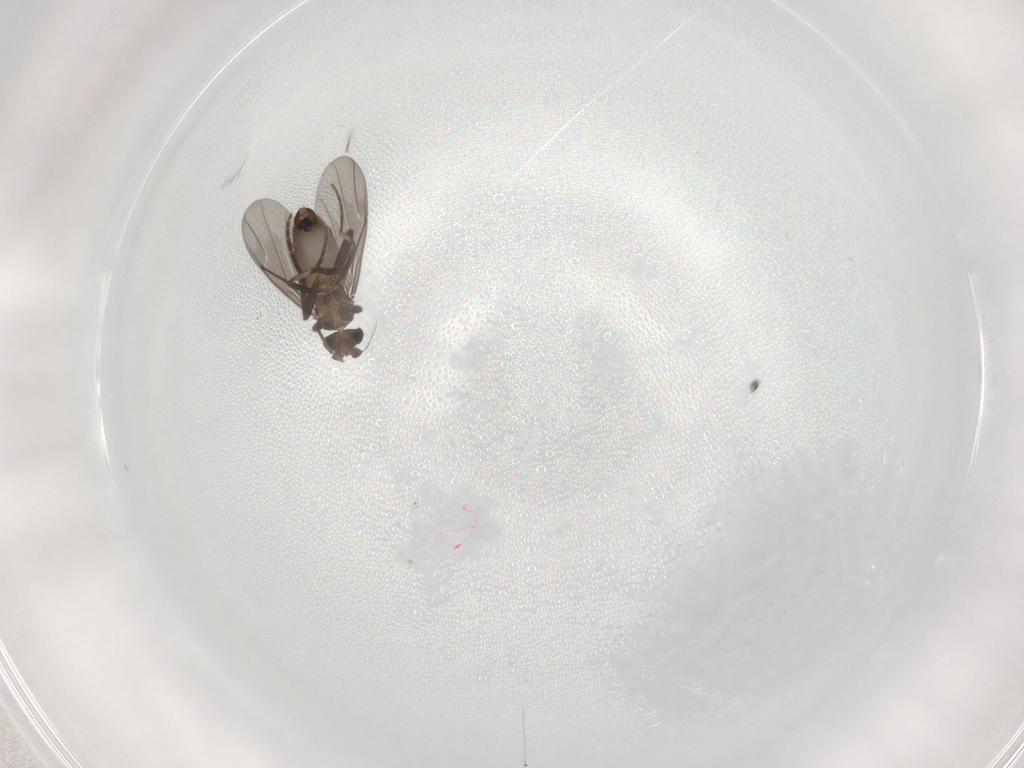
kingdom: Animalia
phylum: Arthropoda
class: Insecta
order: Diptera
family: Phoridae
